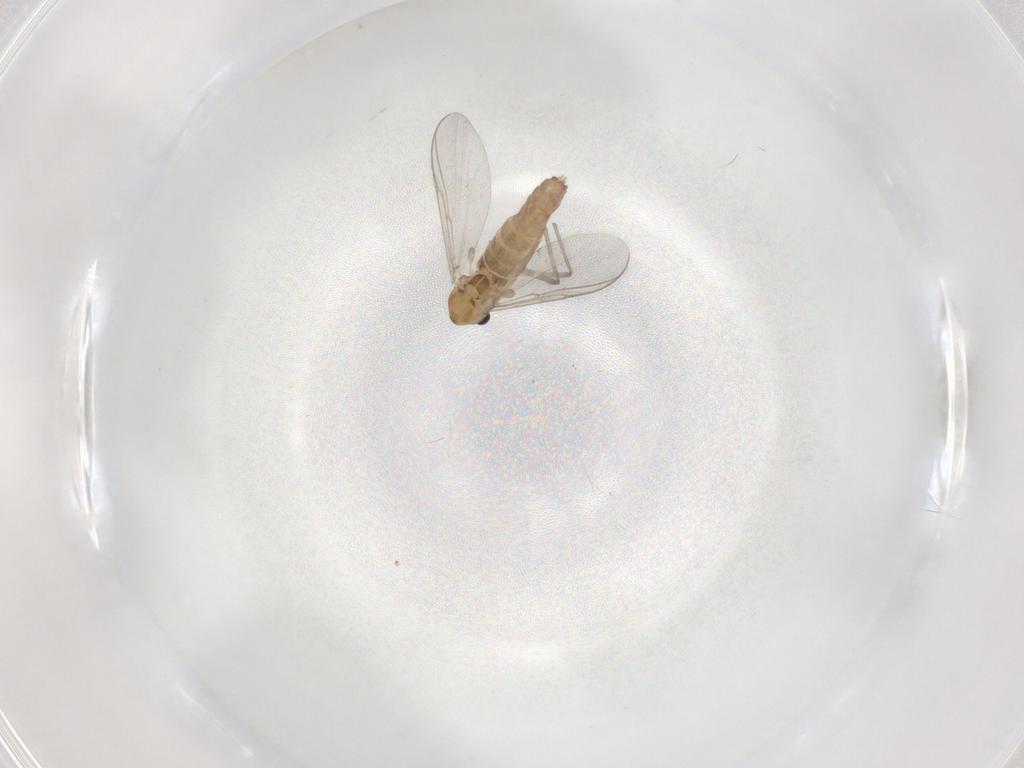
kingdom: Animalia
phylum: Arthropoda
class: Insecta
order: Diptera
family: Chironomidae
